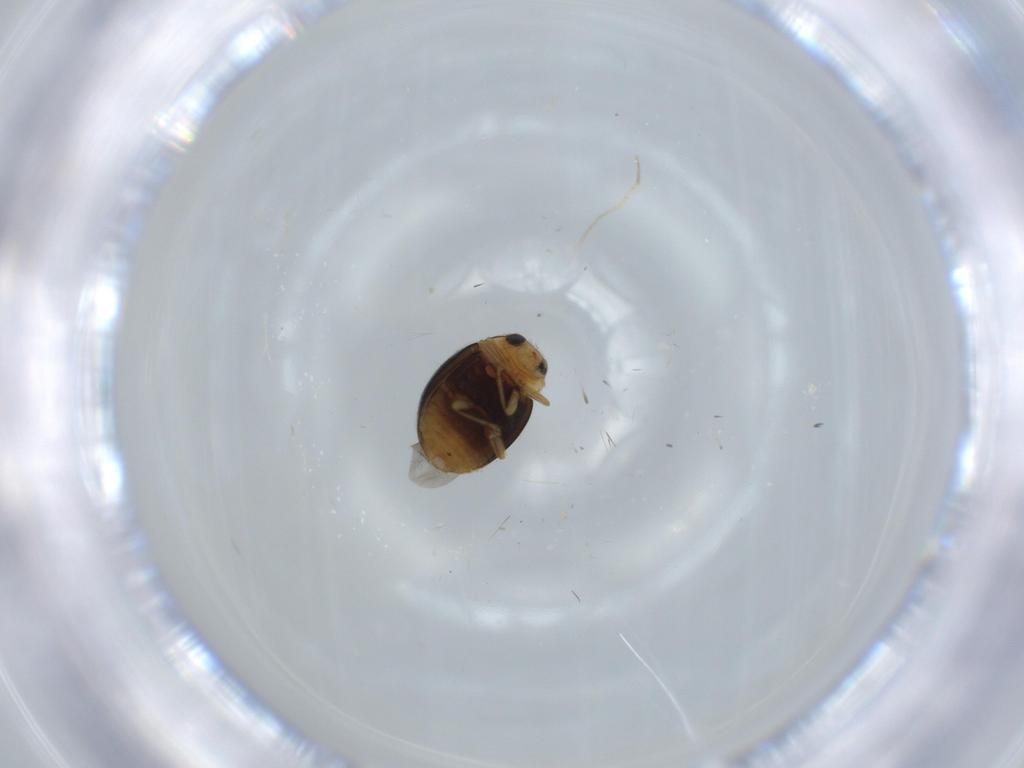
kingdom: Animalia
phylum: Arthropoda
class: Insecta
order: Coleoptera
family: Coccinellidae
